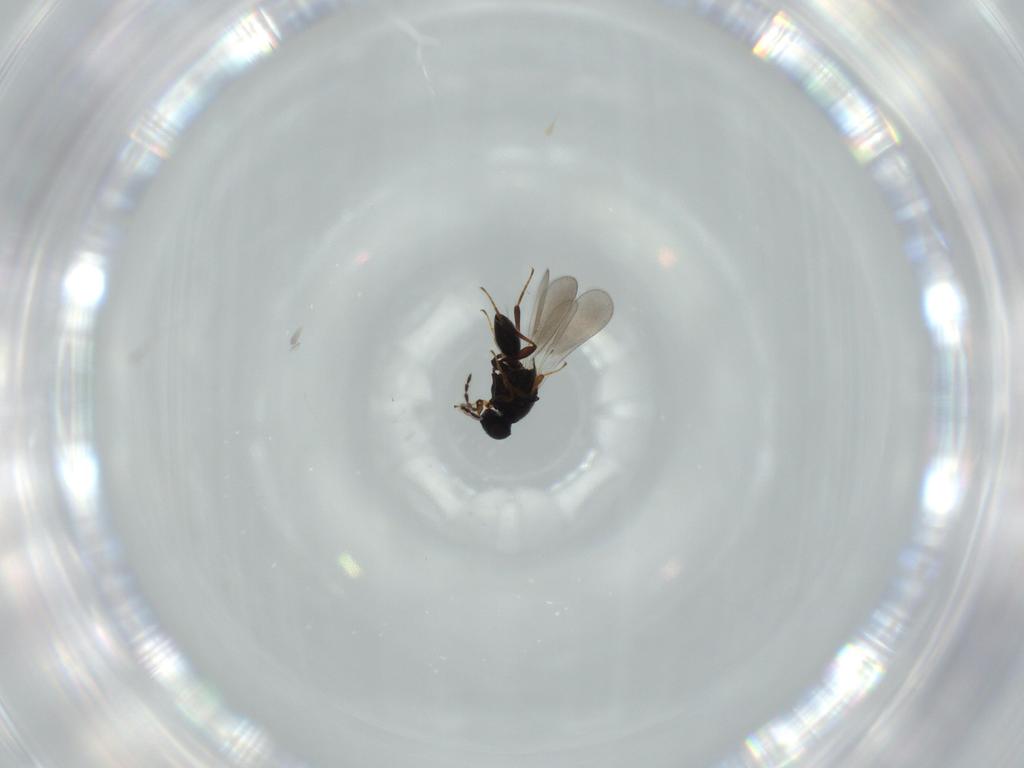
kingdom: Animalia
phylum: Arthropoda
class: Insecta
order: Hymenoptera
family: Platygastridae
